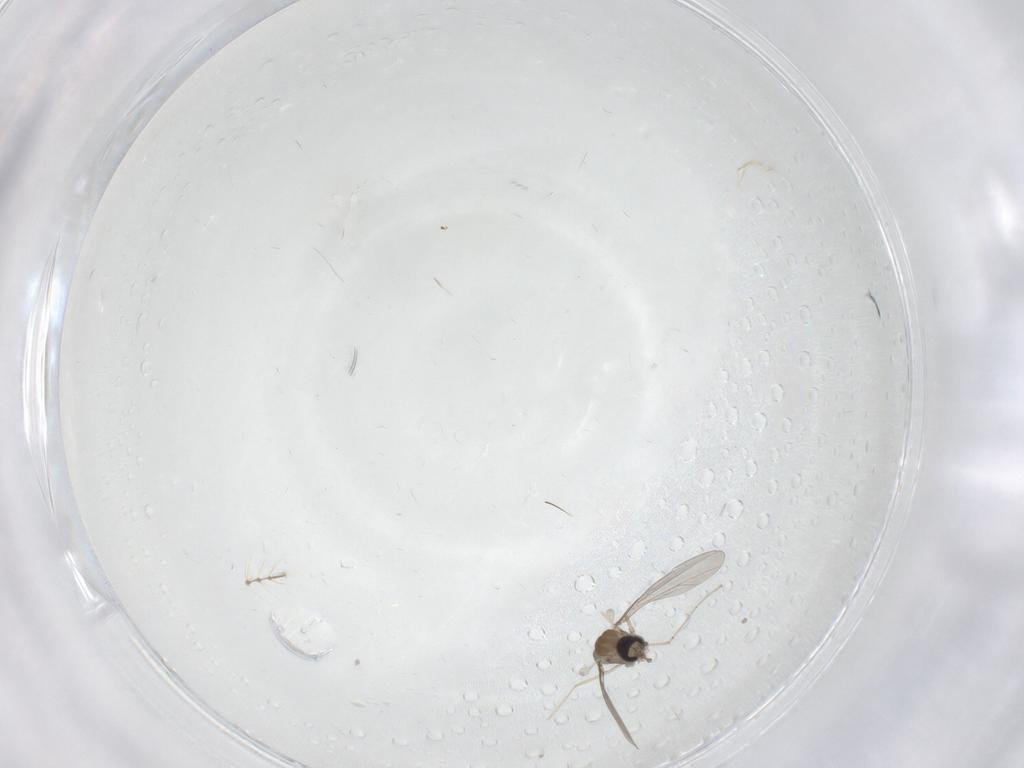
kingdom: Animalia
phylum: Arthropoda
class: Insecta
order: Diptera
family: Cecidomyiidae
